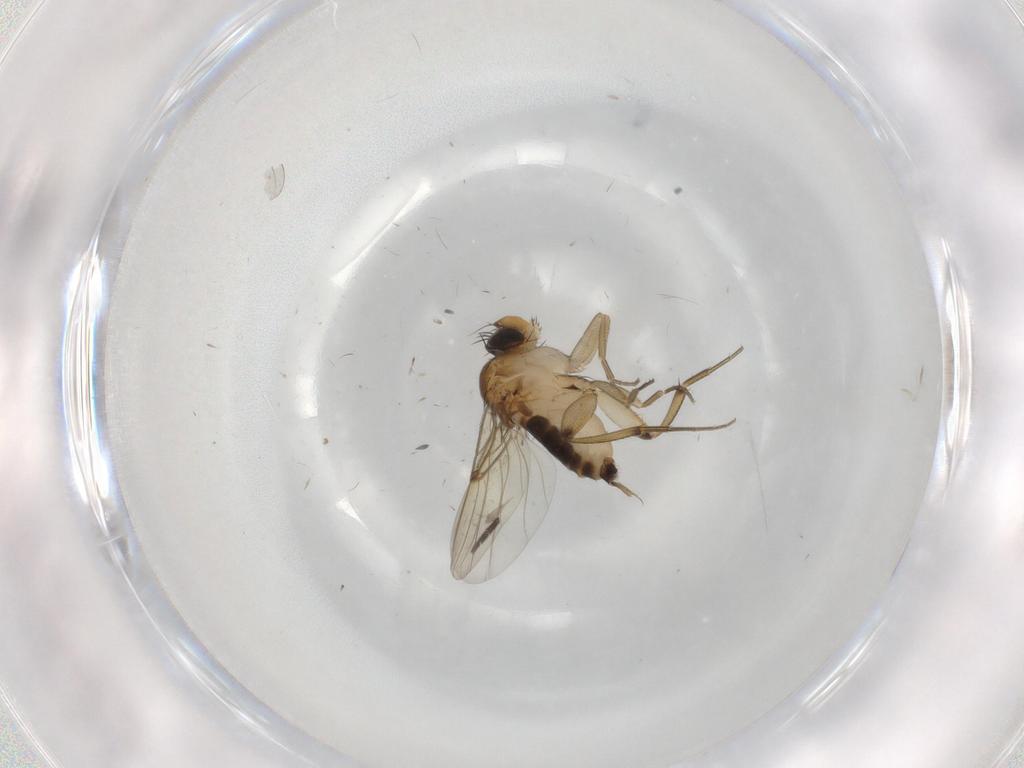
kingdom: Animalia
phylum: Arthropoda
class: Insecta
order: Diptera
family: Sciaridae
